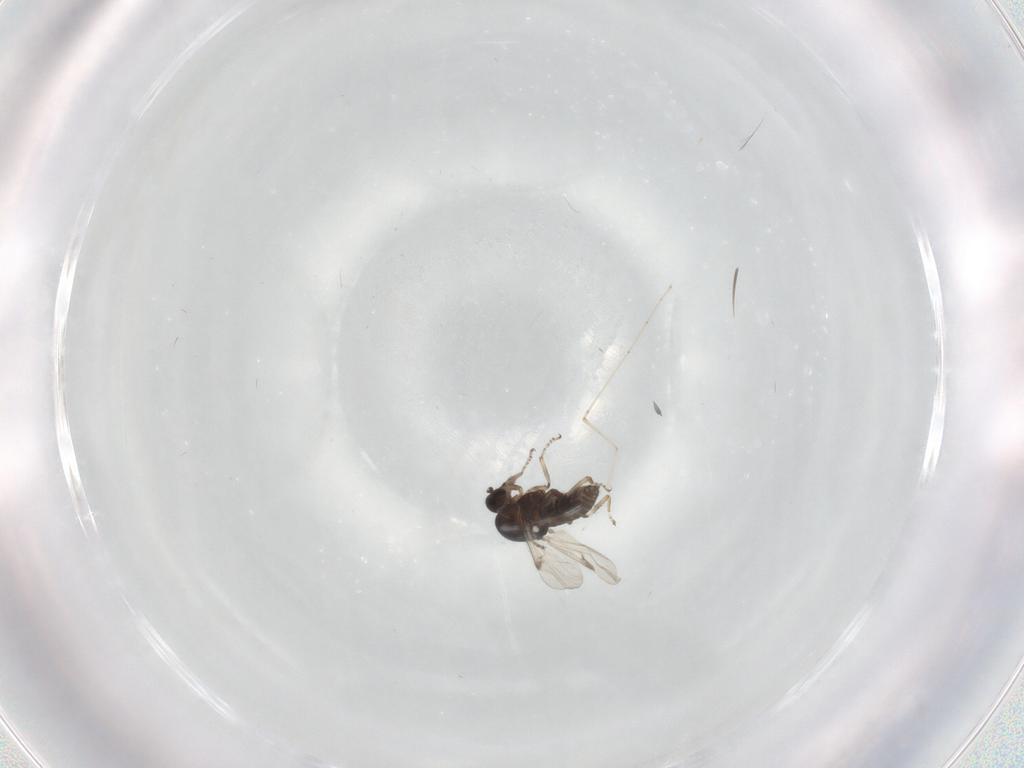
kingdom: Animalia
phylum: Arthropoda
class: Insecta
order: Diptera
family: Ceratopogonidae
